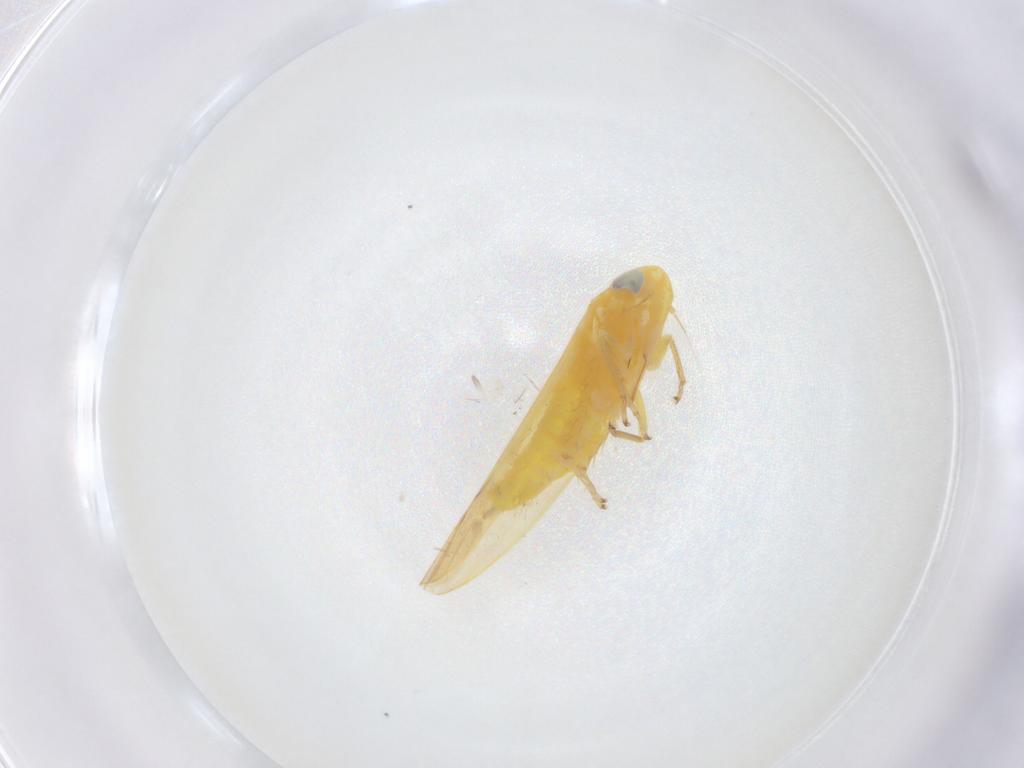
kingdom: Animalia
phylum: Arthropoda
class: Insecta
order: Hemiptera
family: Cicadellidae
